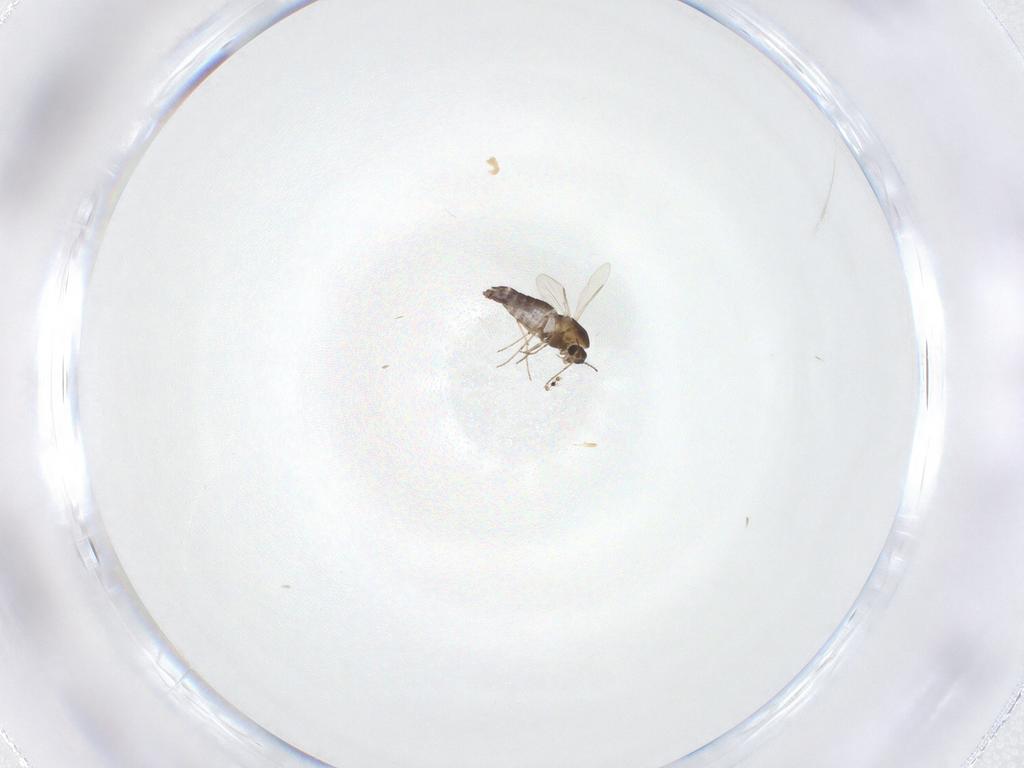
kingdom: Animalia
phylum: Arthropoda
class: Insecta
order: Diptera
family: Chironomidae
